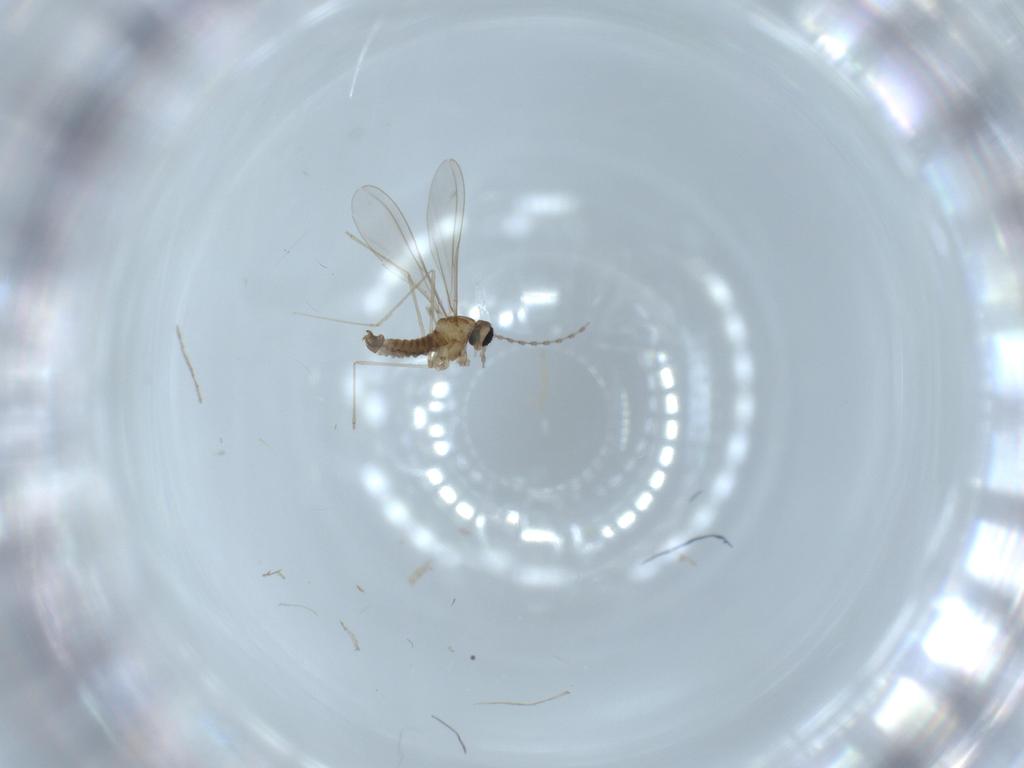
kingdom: Animalia
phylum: Arthropoda
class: Insecta
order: Diptera
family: Cecidomyiidae
